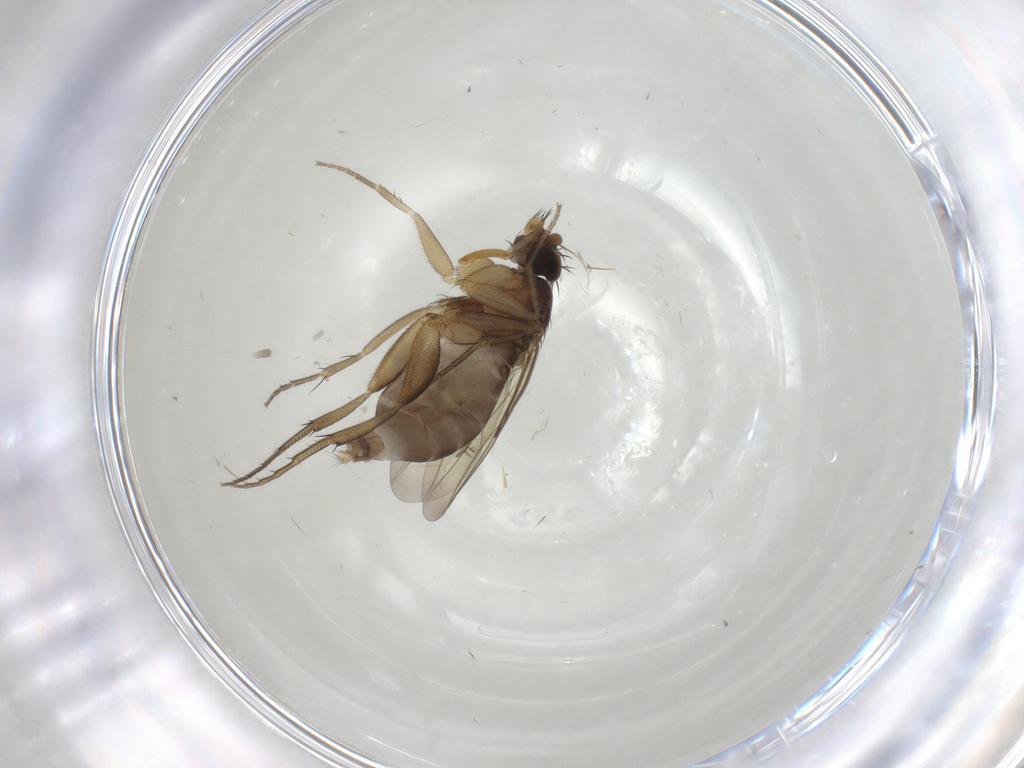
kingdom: Animalia
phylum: Arthropoda
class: Insecta
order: Diptera
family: Phoridae
